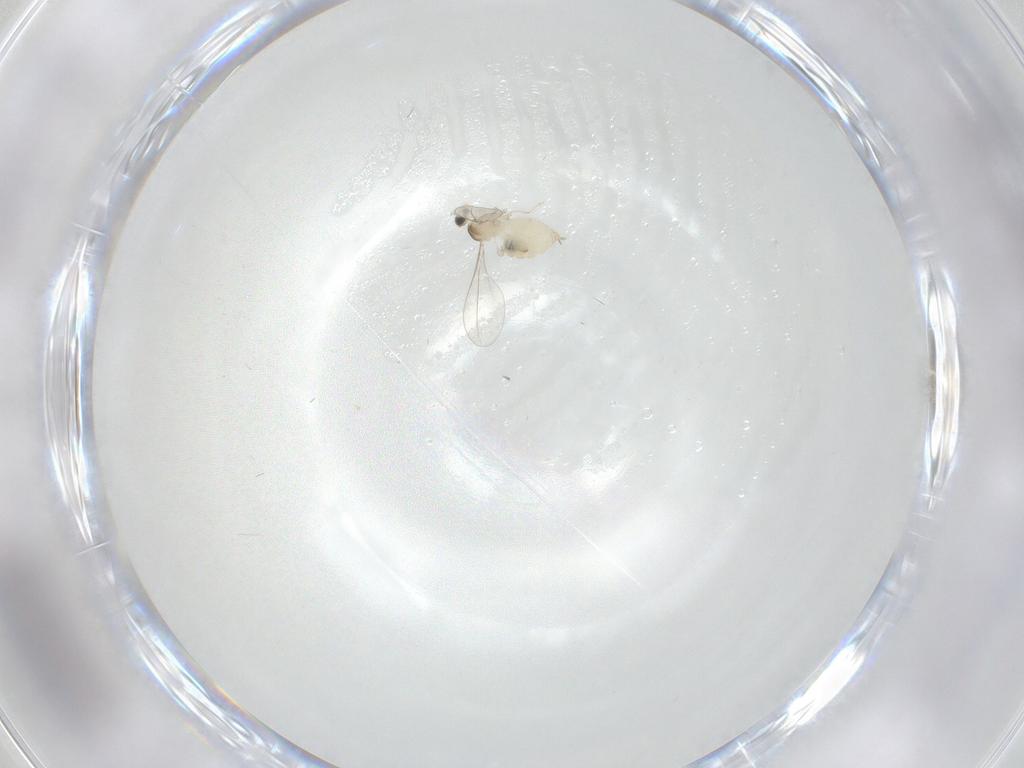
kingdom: Animalia
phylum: Arthropoda
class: Insecta
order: Diptera
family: Cecidomyiidae
